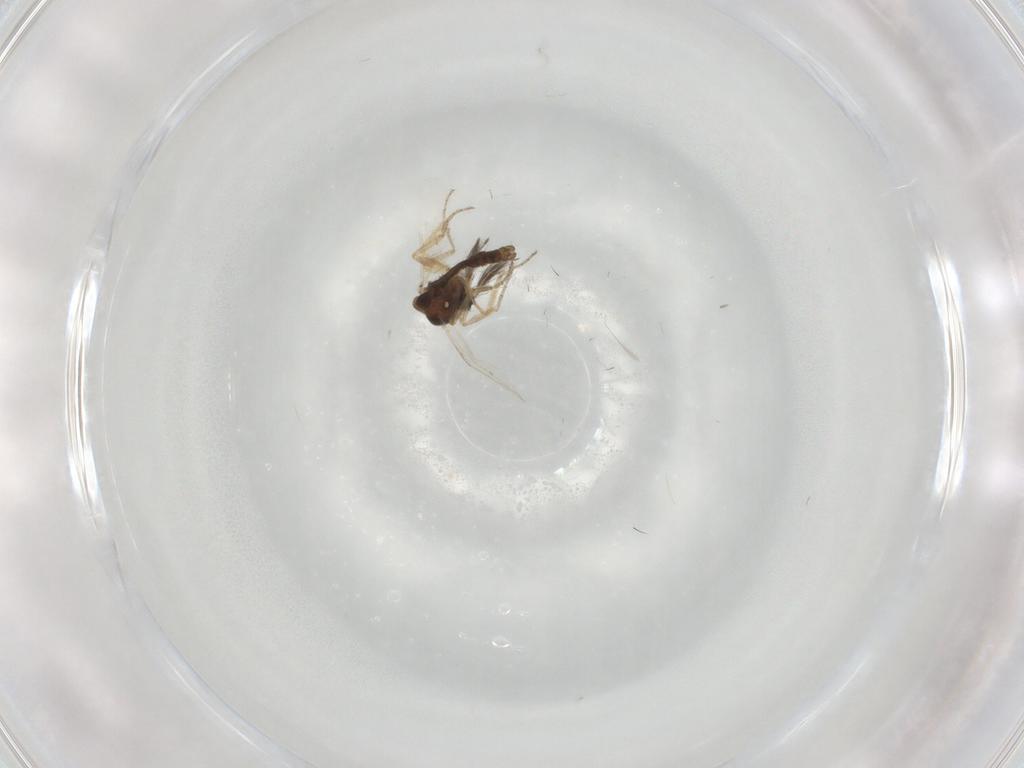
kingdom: Animalia
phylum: Arthropoda
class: Insecta
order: Diptera
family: Ceratopogonidae
